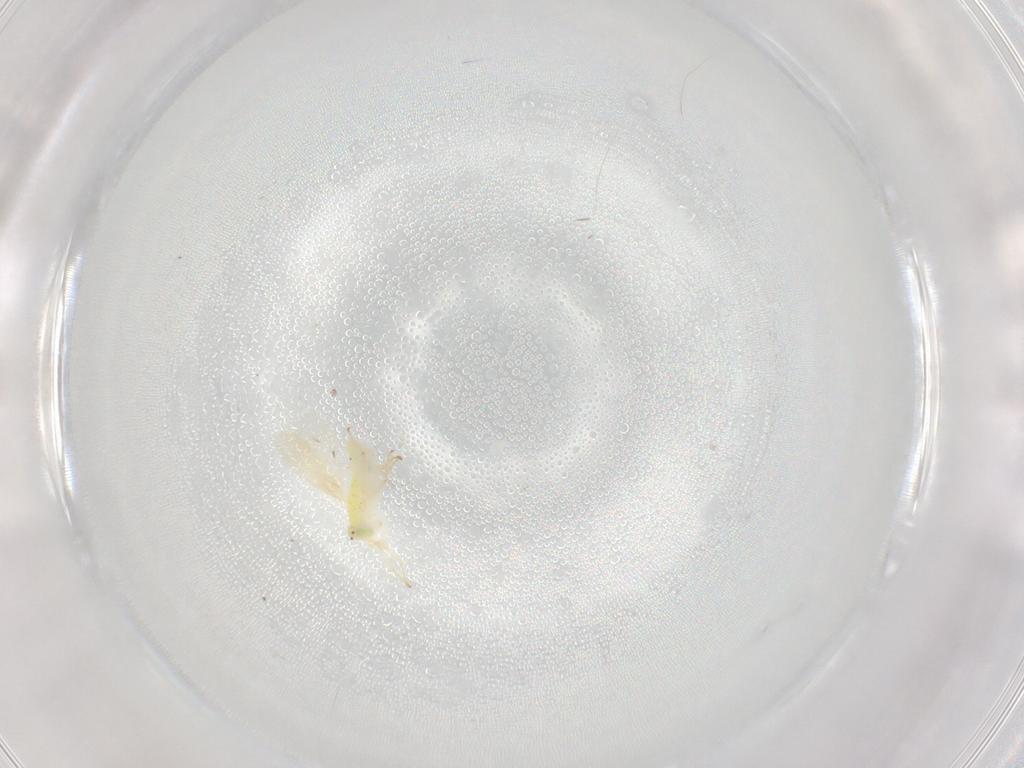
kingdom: Animalia
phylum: Arthropoda
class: Insecta
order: Hymenoptera
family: Aphelinidae
